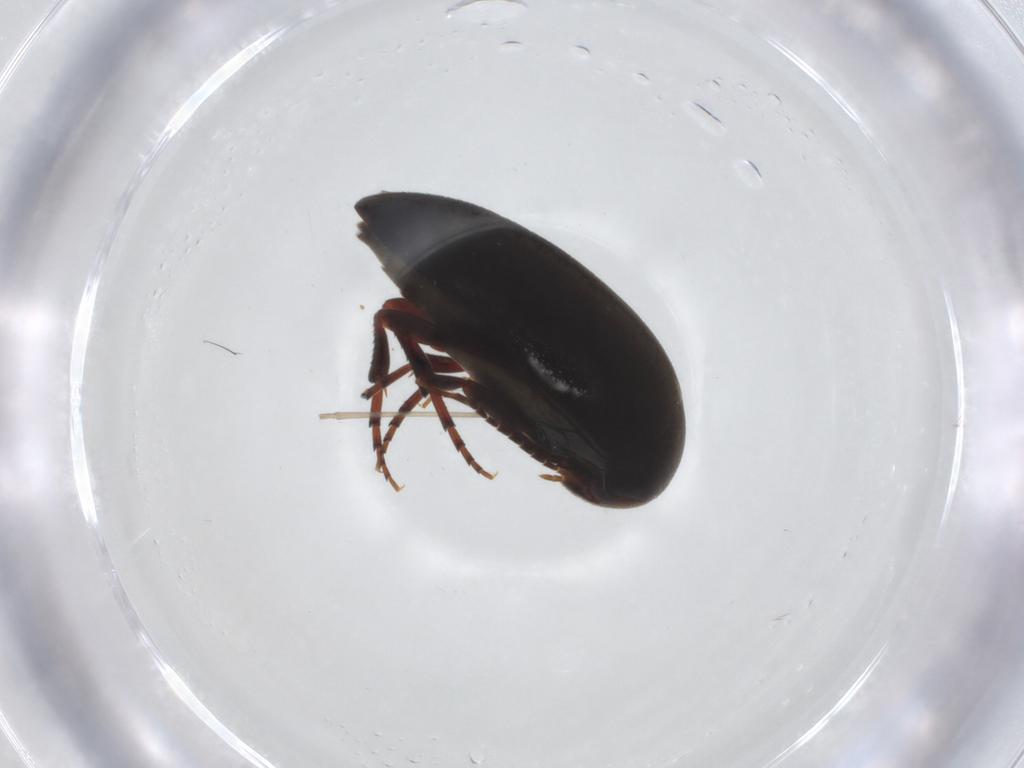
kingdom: Animalia
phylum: Arthropoda
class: Insecta
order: Coleoptera
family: Eucinetidae
